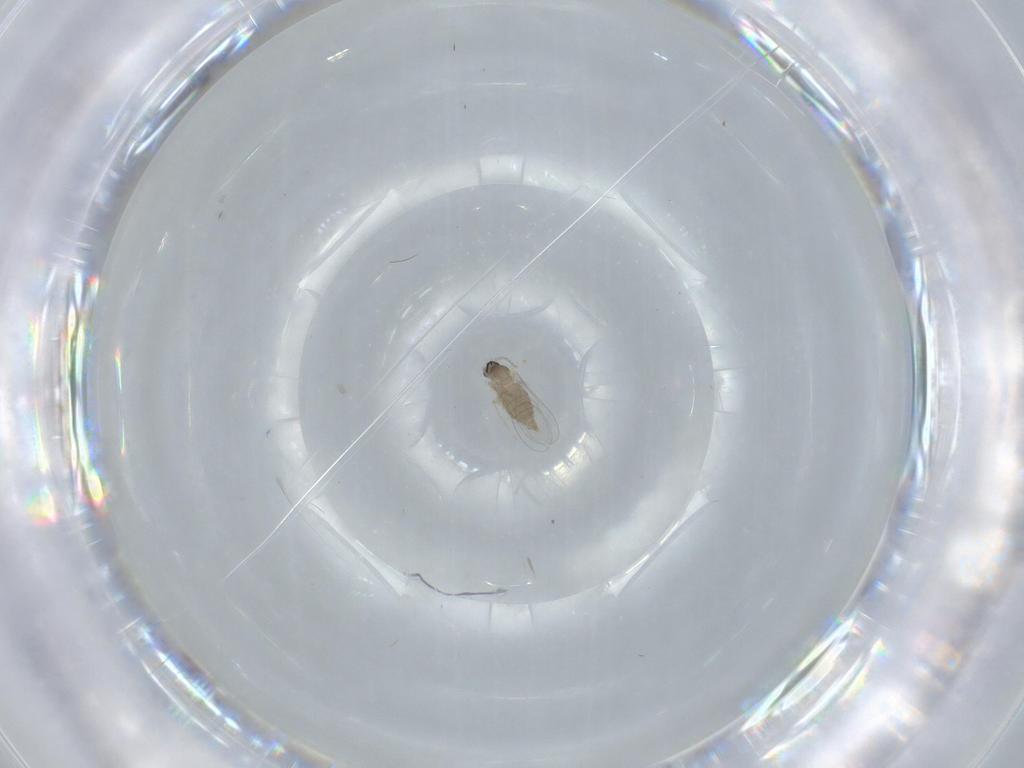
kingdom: Animalia
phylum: Arthropoda
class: Insecta
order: Diptera
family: Cecidomyiidae
